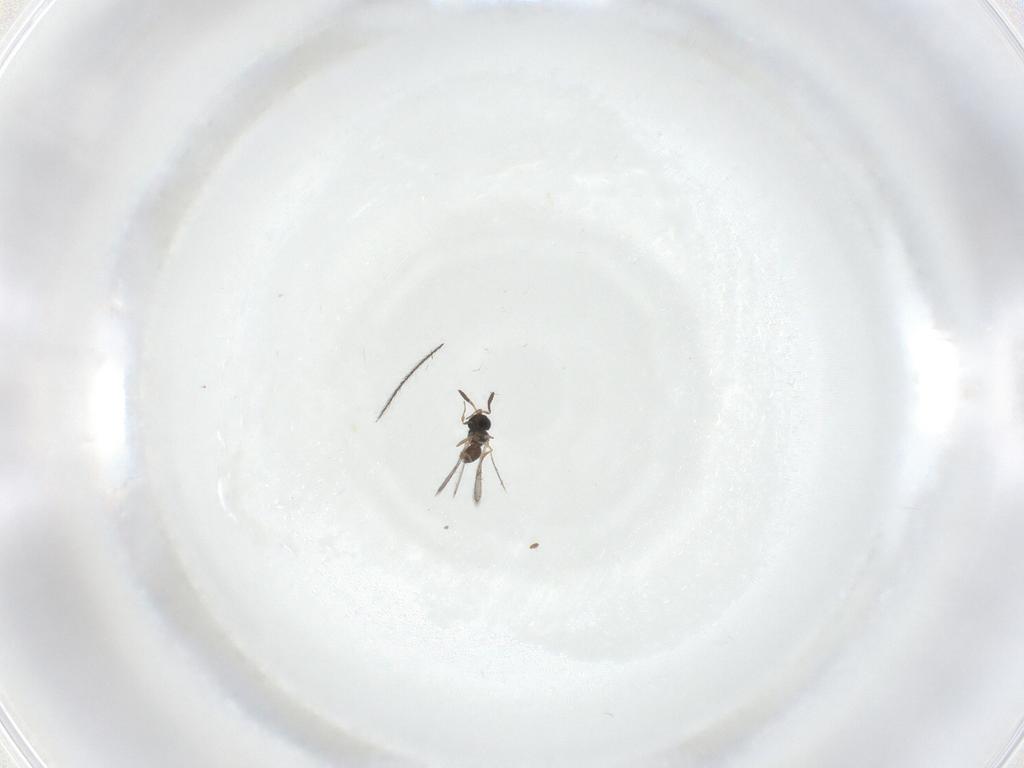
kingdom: Animalia
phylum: Arthropoda
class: Insecta
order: Hymenoptera
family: Scelionidae
